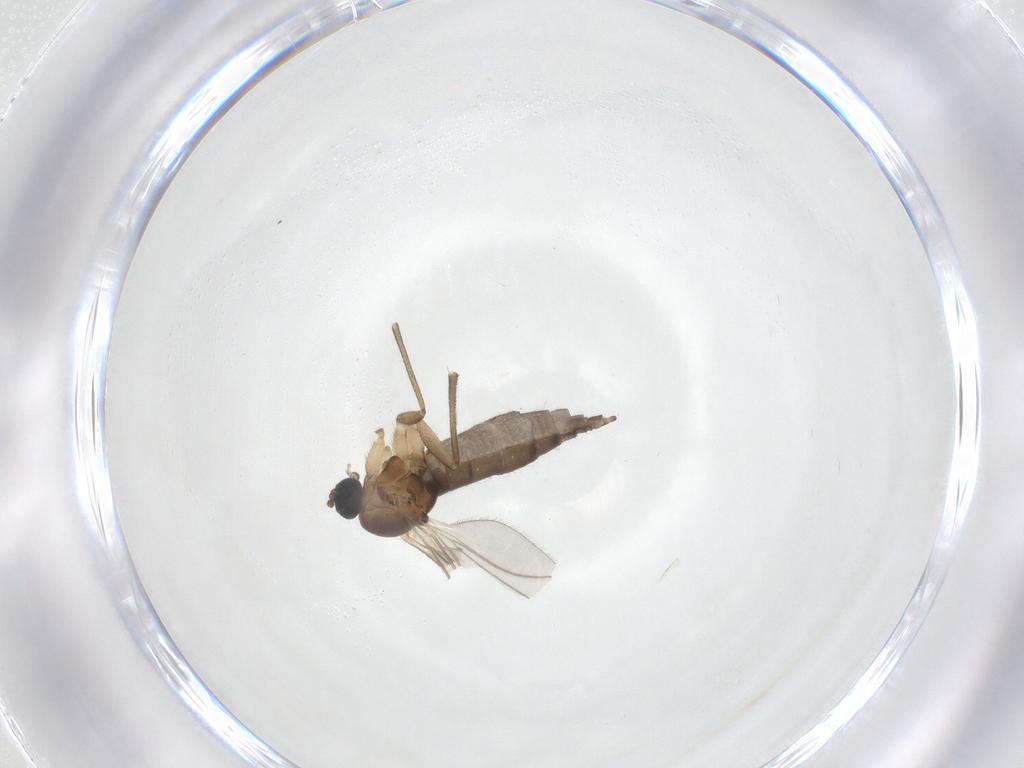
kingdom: Animalia
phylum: Arthropoda
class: Insecta
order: Diptera
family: Sciaridae
